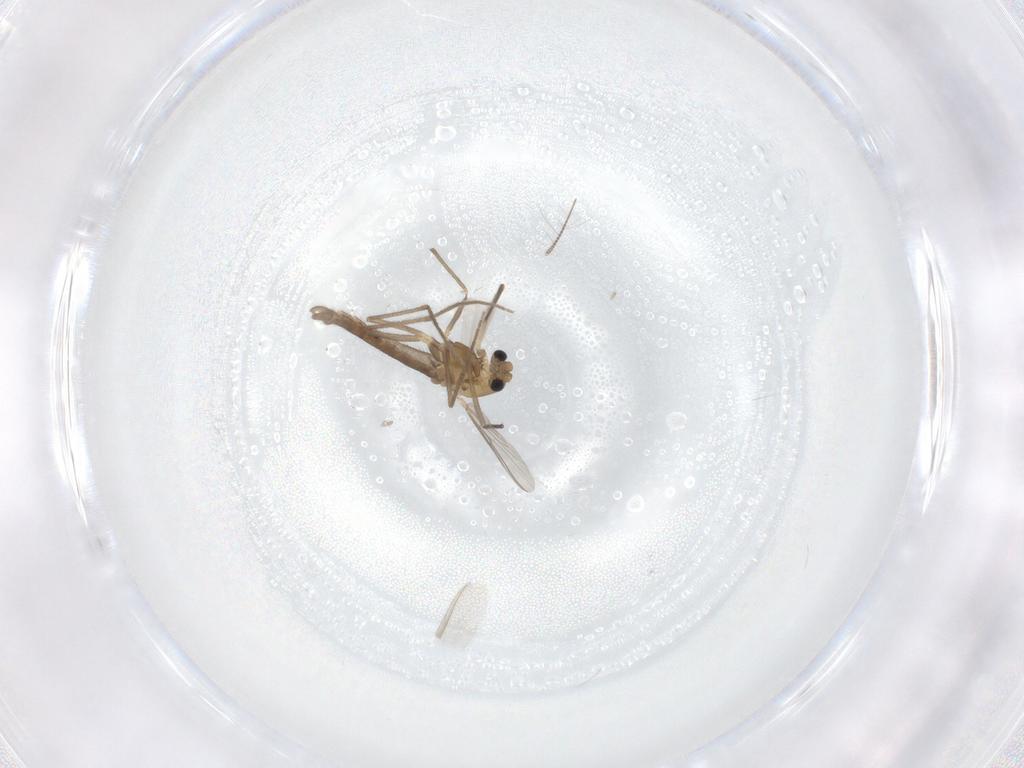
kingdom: Animalia
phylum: Arthropoda
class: Insecta
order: Diptera
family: Chironomidae
